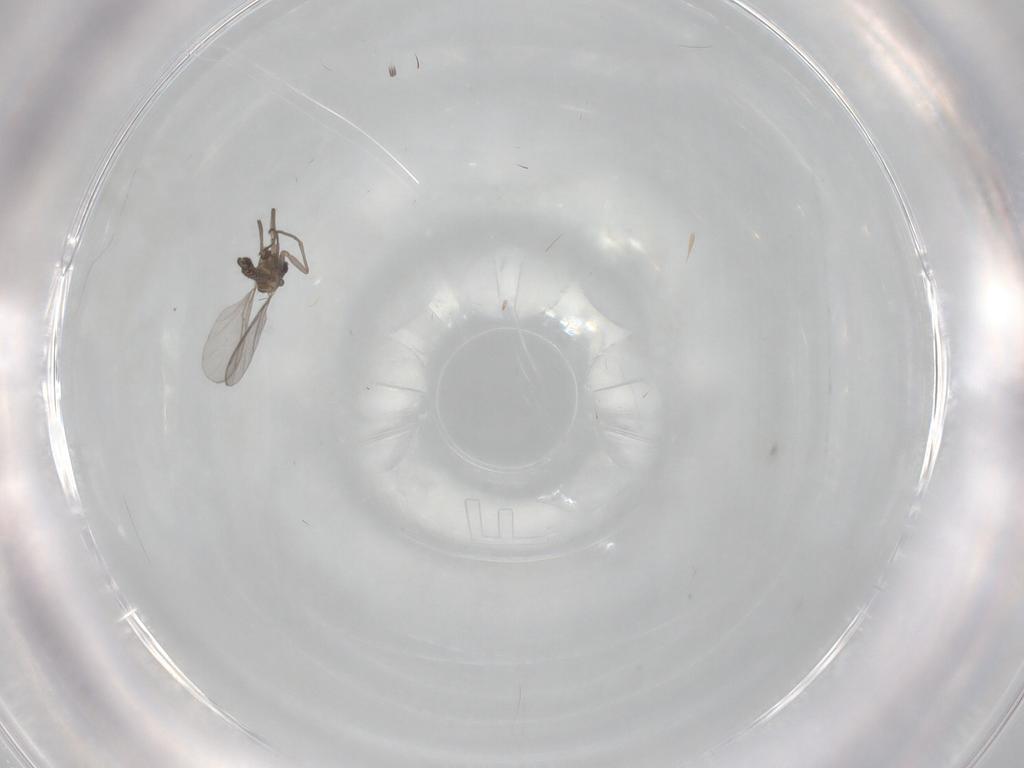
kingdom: Animalia
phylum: Arthropoda
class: Insecta
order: Diptera
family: Sciaridae
